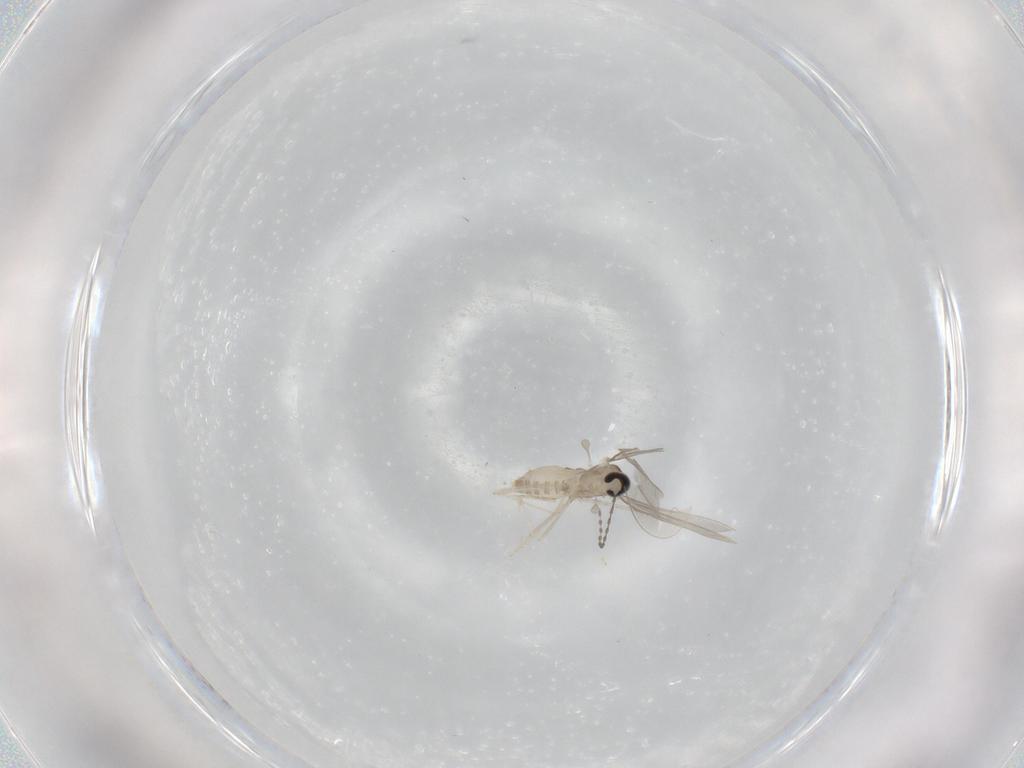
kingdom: Animalia
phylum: Arthropoda
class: Insecta
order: Diptera
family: Cecidomyiidae
